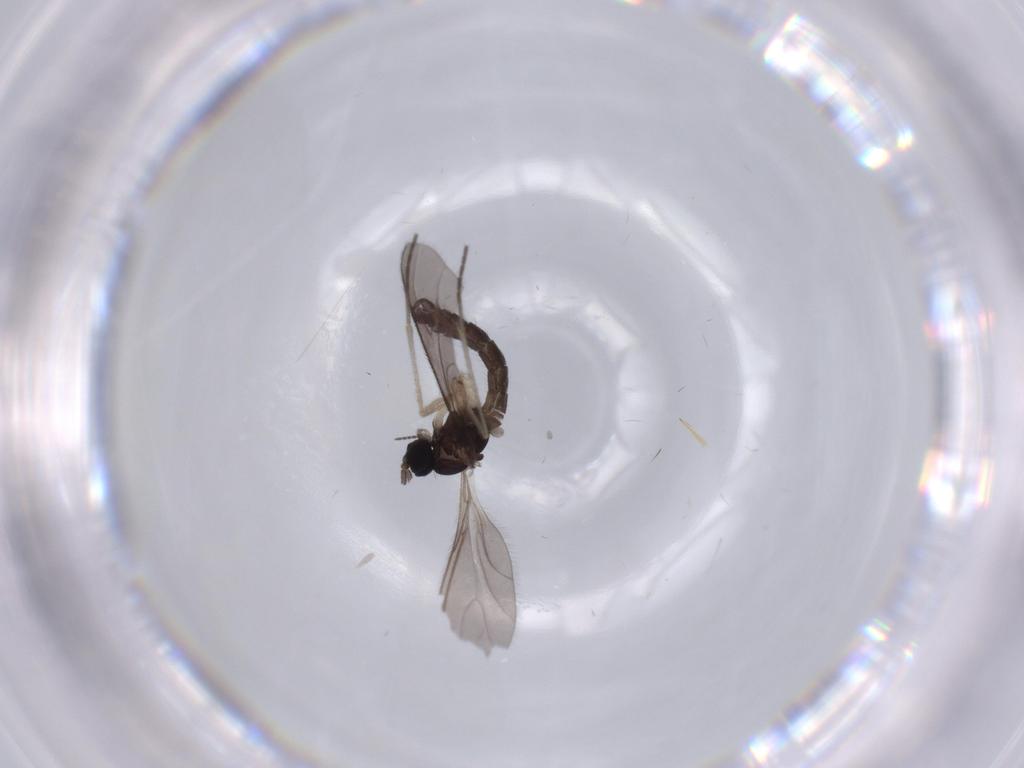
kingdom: Animalia
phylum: Arthropoda
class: Insecta
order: Diptera
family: Sciaridae
